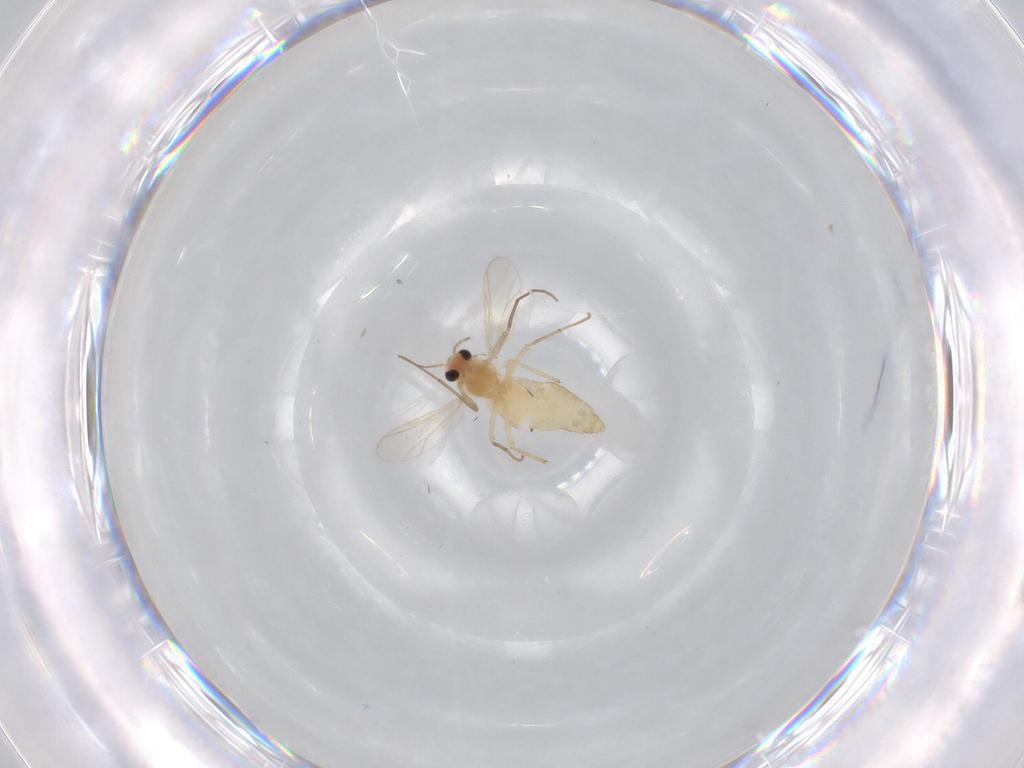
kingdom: Animalia
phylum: Arthropoda
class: Insecta
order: Diptera
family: Chironomidae
